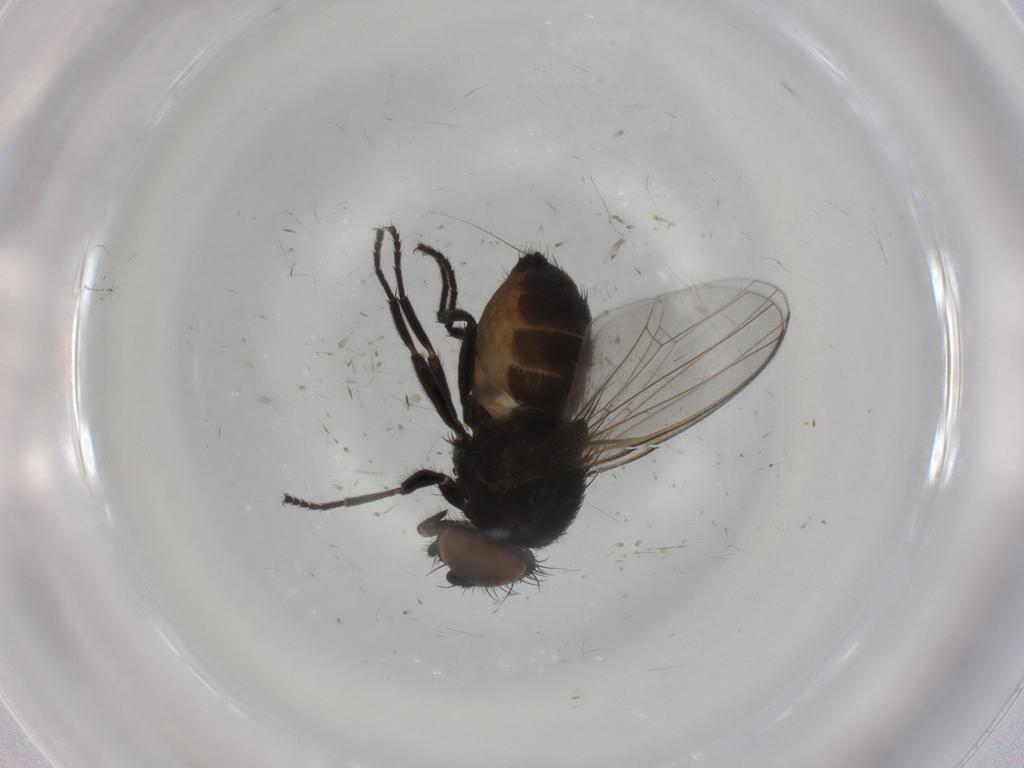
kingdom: Animalia
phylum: Arthropoda
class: Insecta
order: Diptera
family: Milichiidae
